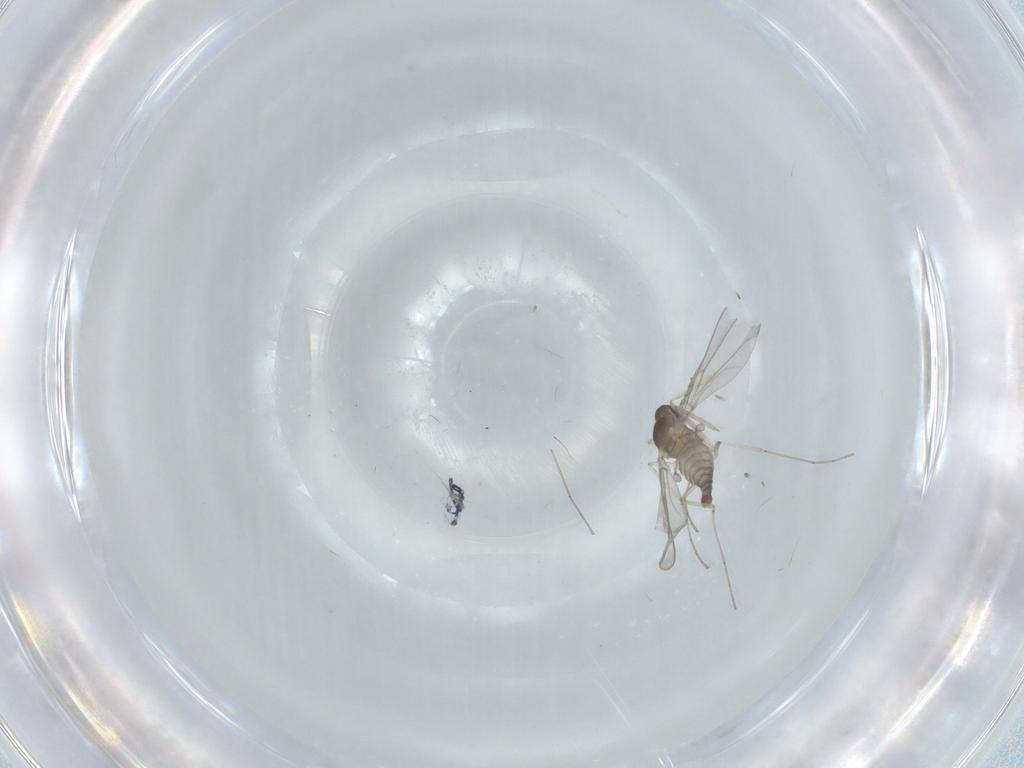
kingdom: Animalia
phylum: Arthropoda
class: Insecta
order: Diptera
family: Cecidomyiidae
